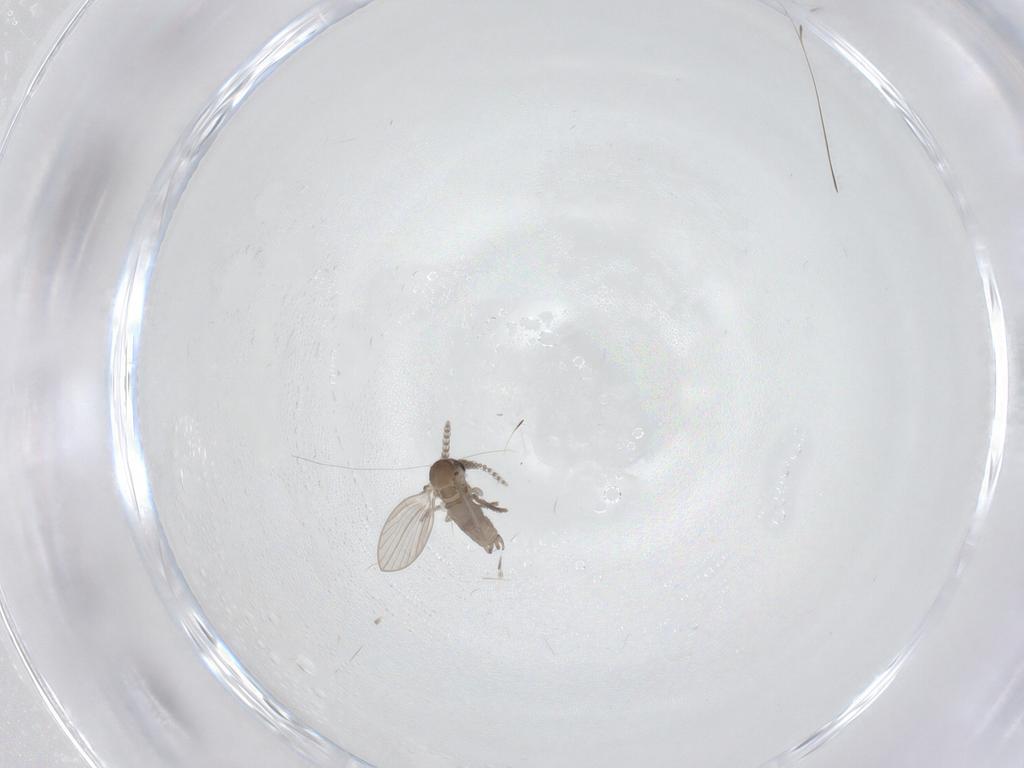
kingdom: Animalia
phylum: Arthropoda
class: Insecta
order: Diptera
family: Psychodidae
